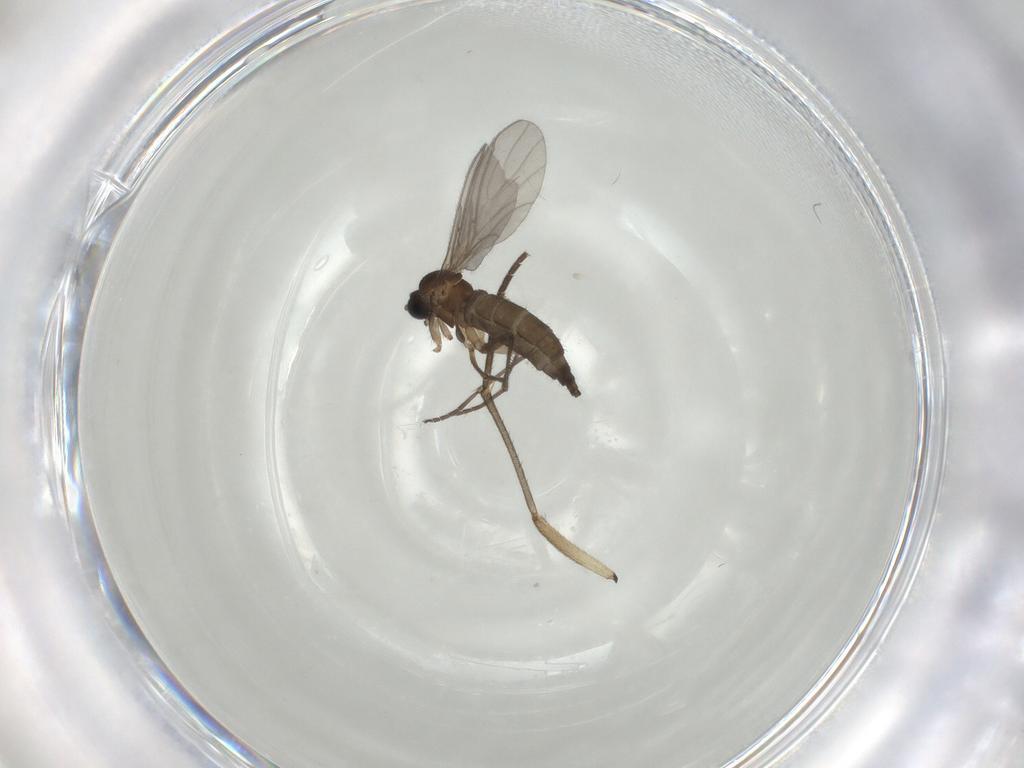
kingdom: Animalia
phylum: Arthropoda
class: Insecta
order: Diptera
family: Sciaridae
